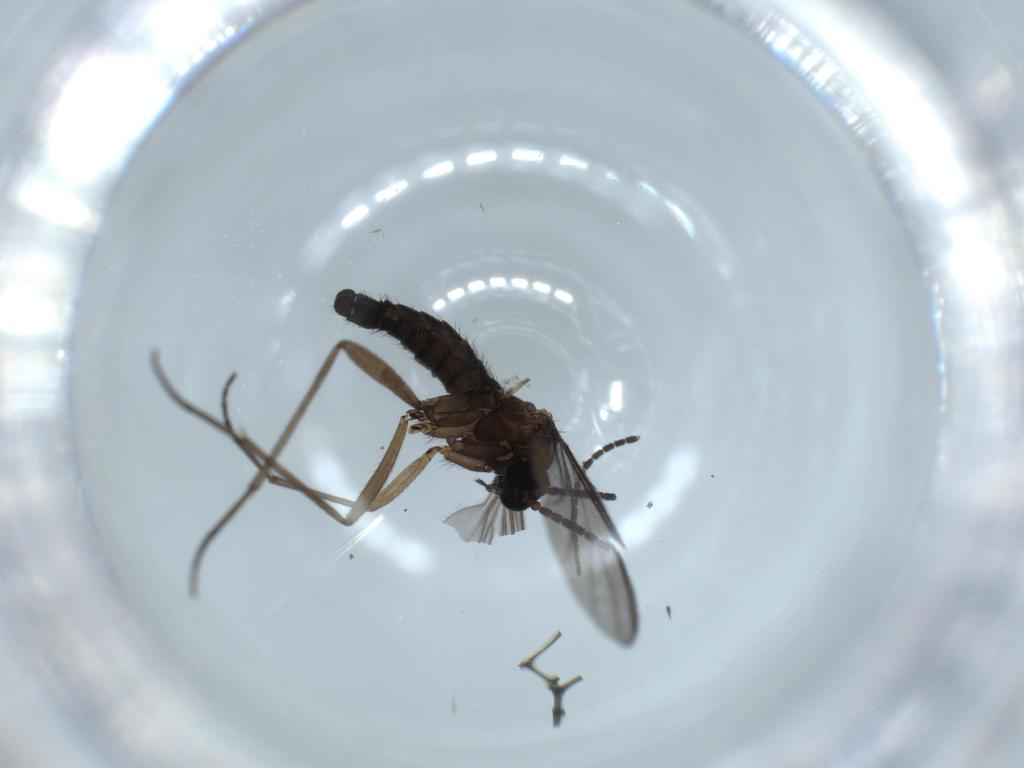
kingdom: Animalia
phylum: Arthropoda
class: Insecta
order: Diptera
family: Sciaridae
